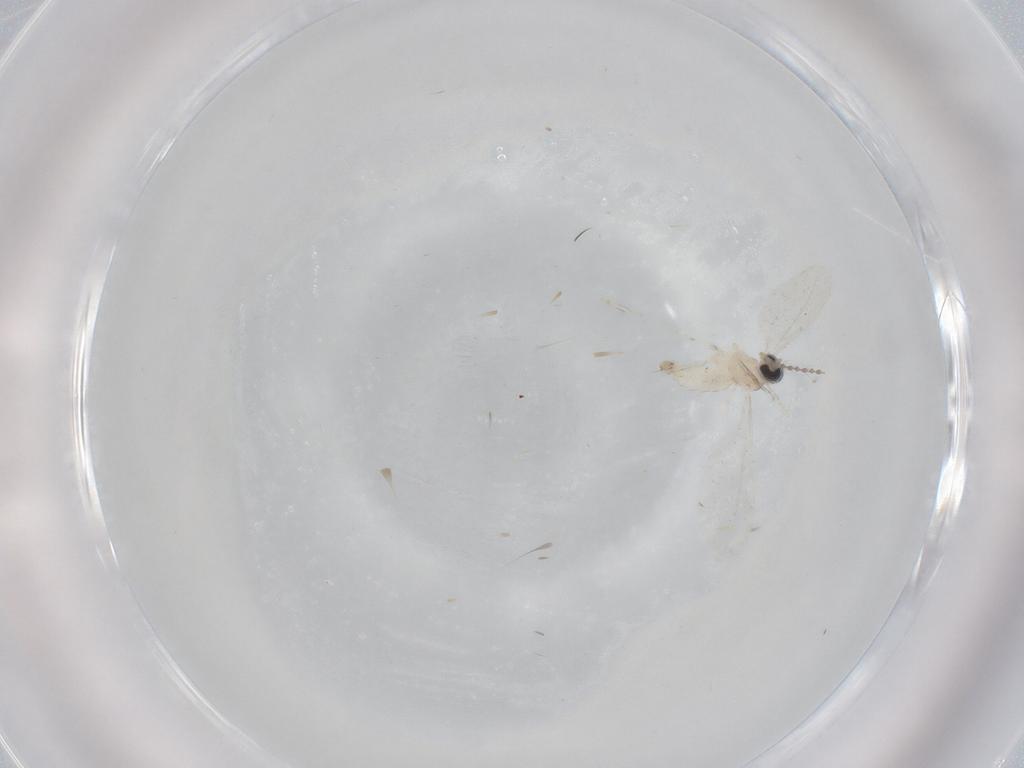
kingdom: Animalia
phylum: Arthropoda
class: Insecta
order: Diptera
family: Cecidomyiidae
